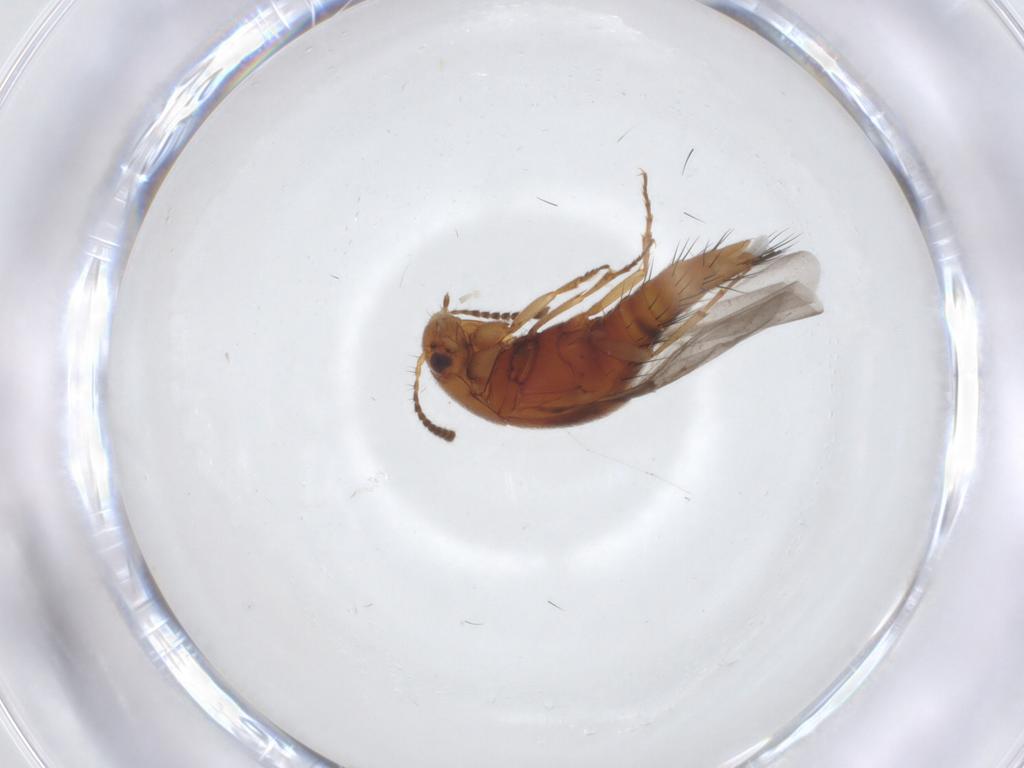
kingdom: Animalia
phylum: Arthropoda
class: Insecta
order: Coleoptera
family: Staphylinidae
